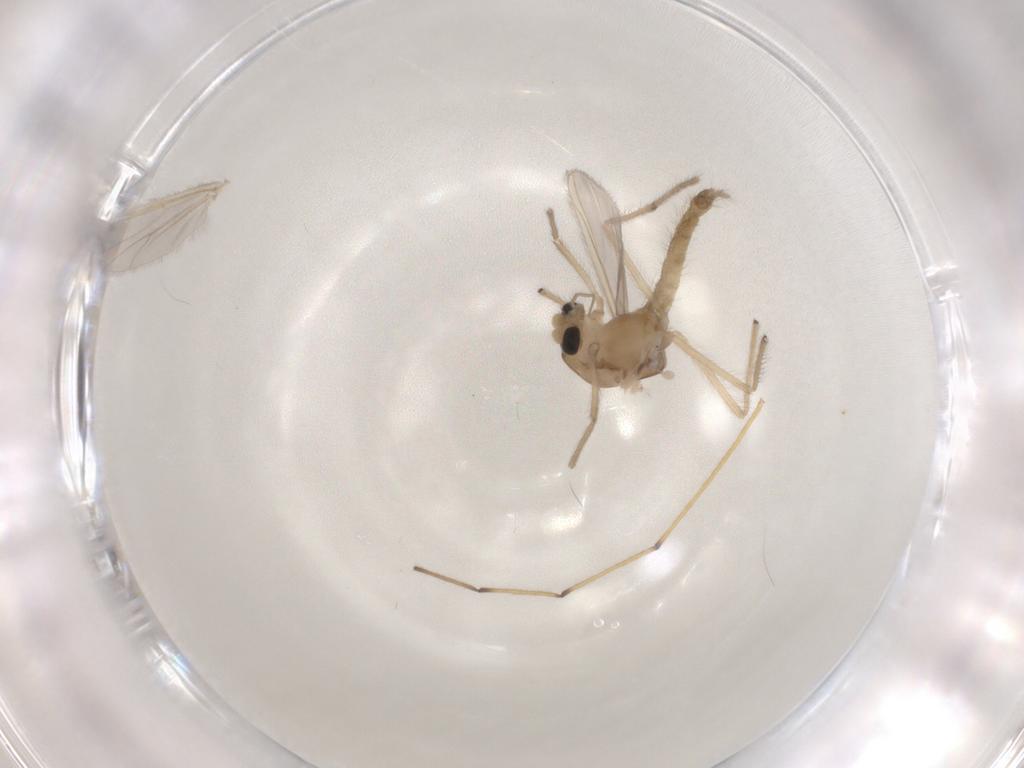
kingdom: Animalia
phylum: Arthropoda
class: Insecta
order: Diptera
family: Chironomidae
